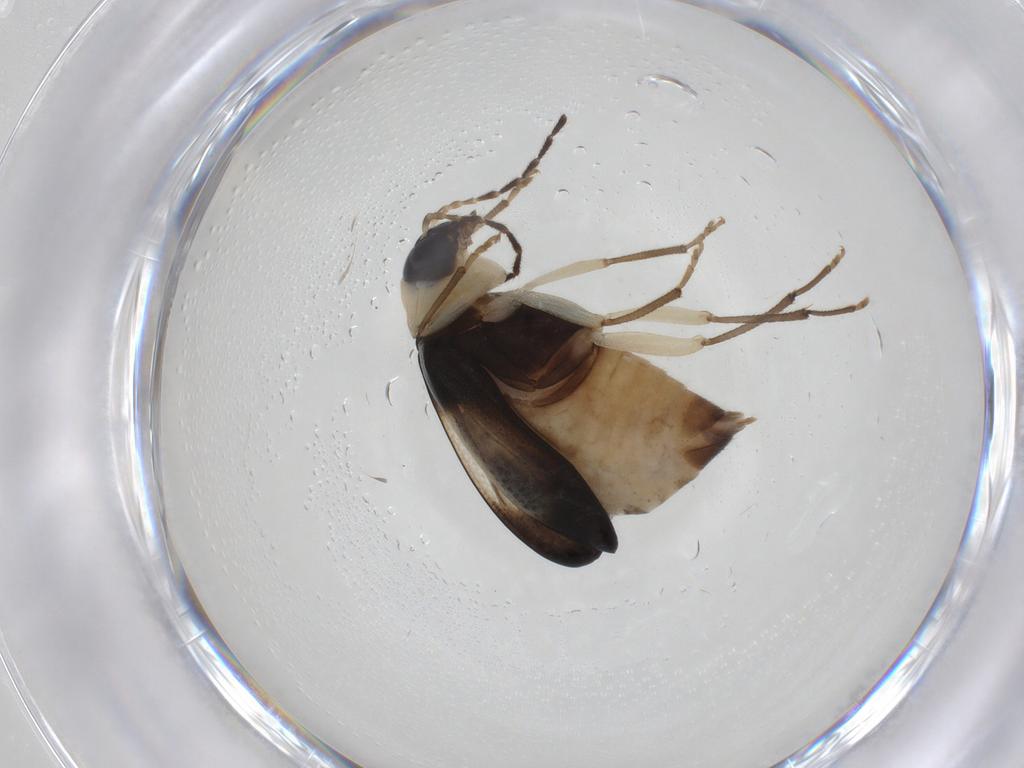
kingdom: Animalia
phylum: Arthropoda
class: Insecta
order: Coleoptera
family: Chrysomelidae
